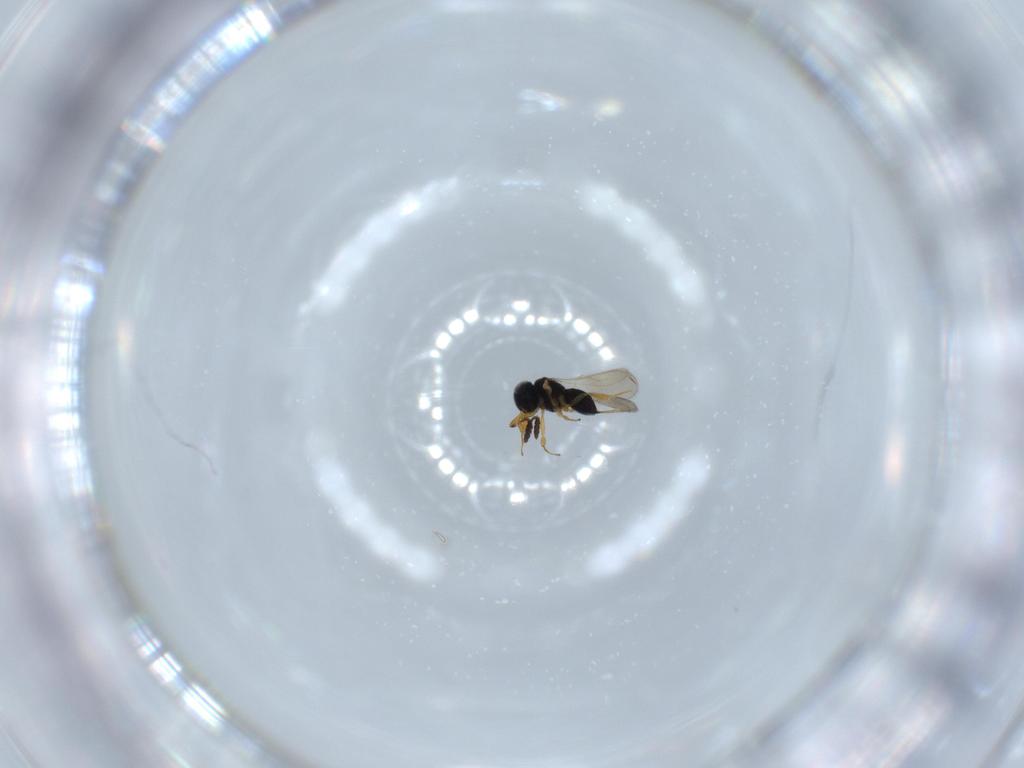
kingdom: Animalia
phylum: Arthropoda
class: Insecta
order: Hymenoptera
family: Scelionidae
